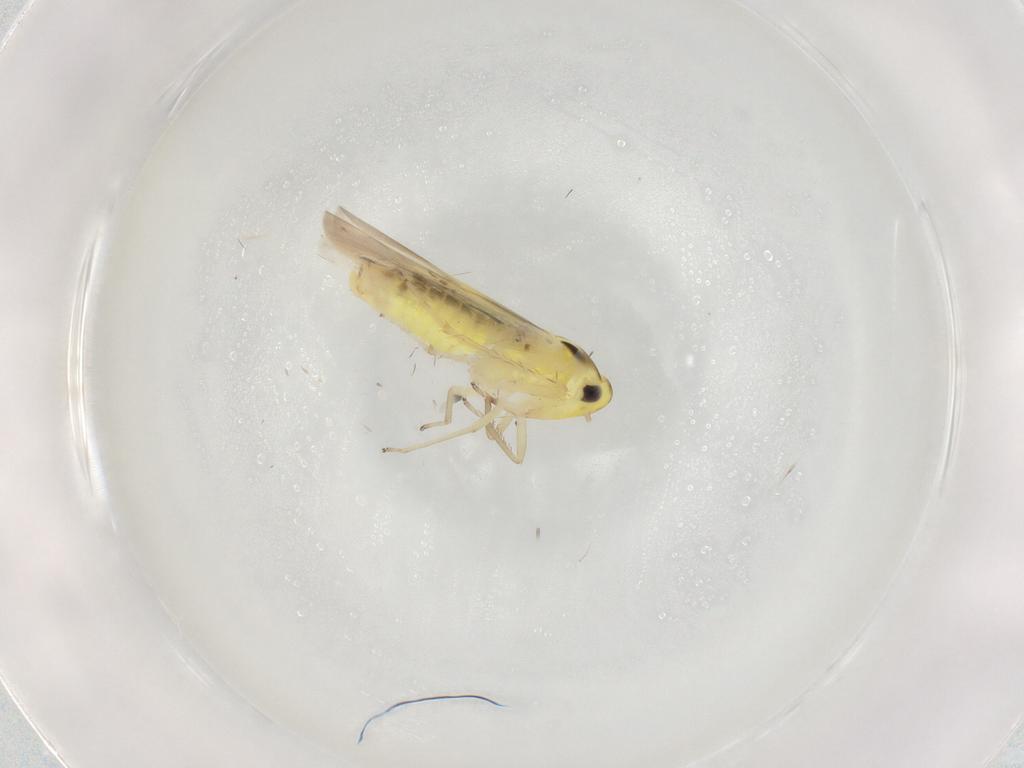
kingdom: Animalia
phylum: Arthropoda
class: Insecta
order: Hemiptera
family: Cicadellidae
